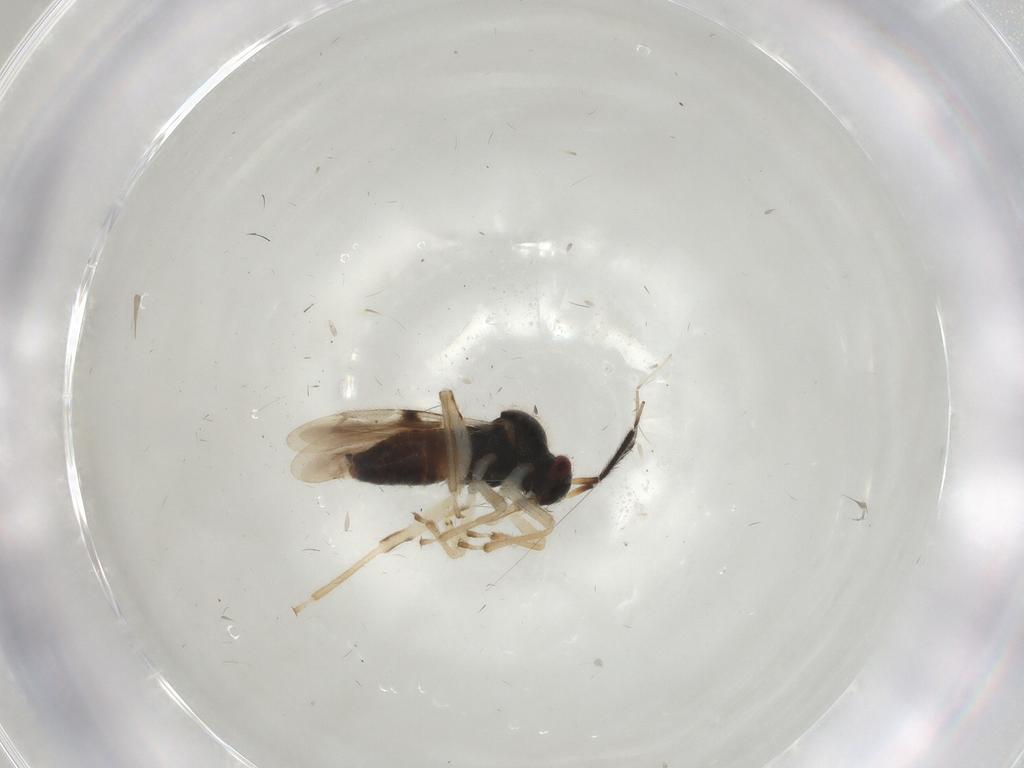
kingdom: Animalia
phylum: Arthropoda
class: Insecta
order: Hemiptera
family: Miridae
